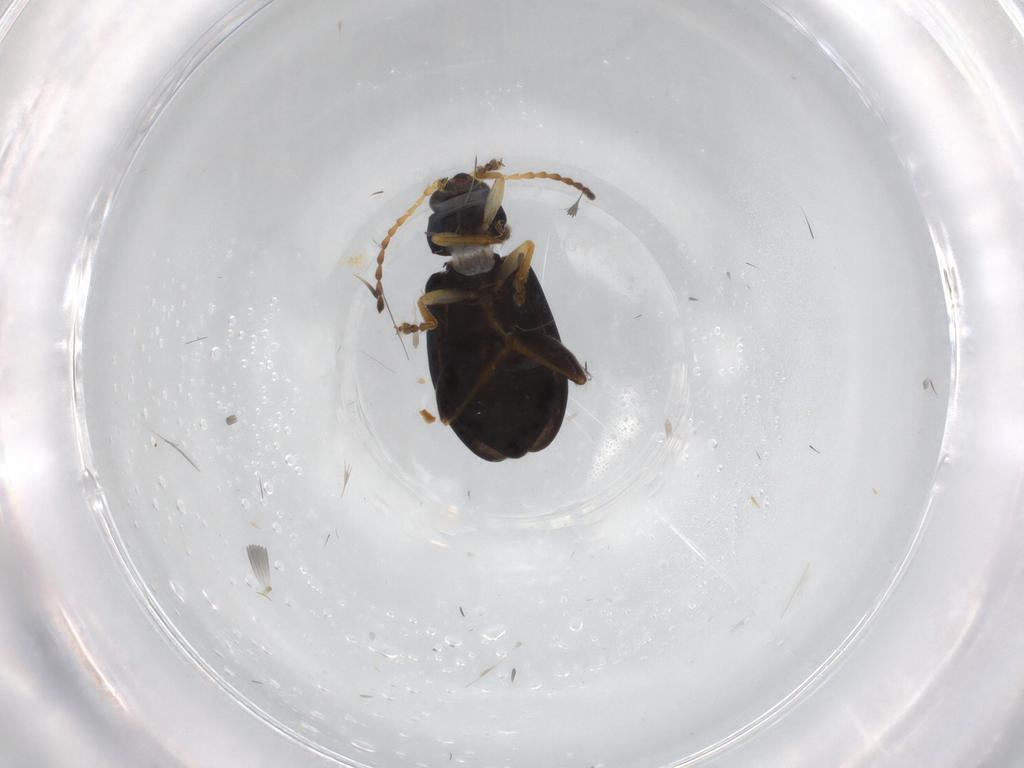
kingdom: Animalia
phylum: Arthropoda
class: Insecta
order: Coleoptera
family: Chrysomelidae
